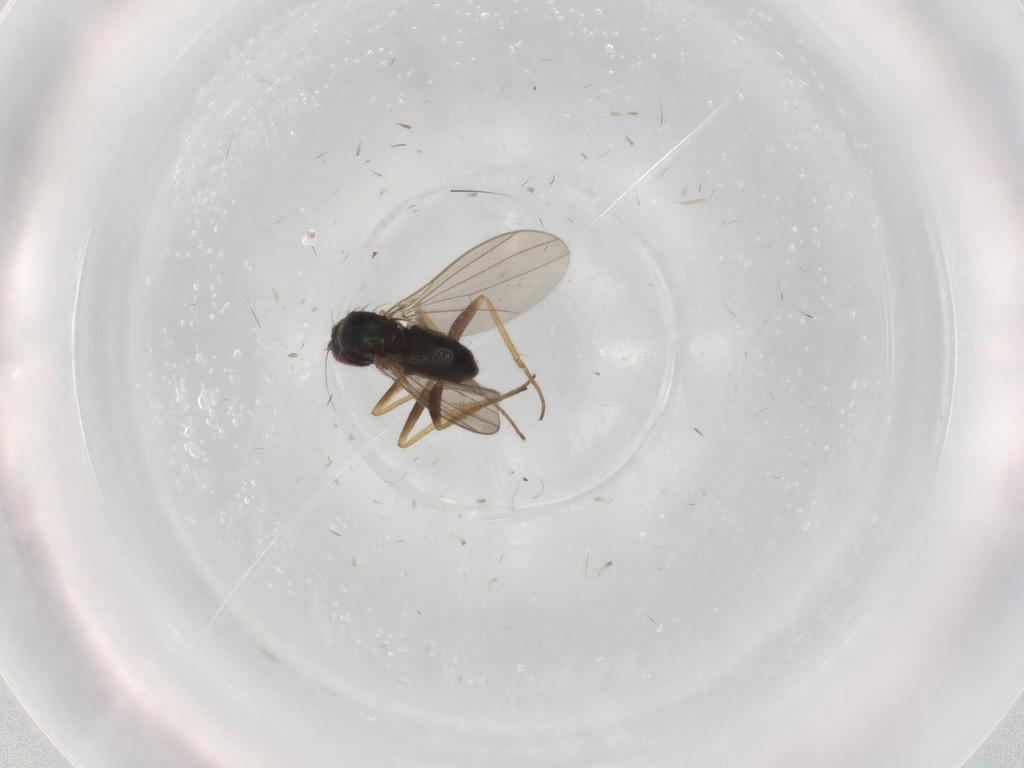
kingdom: Animalia
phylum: Arthropoda
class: Insecta
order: Diptera
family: Dolichopodidae
